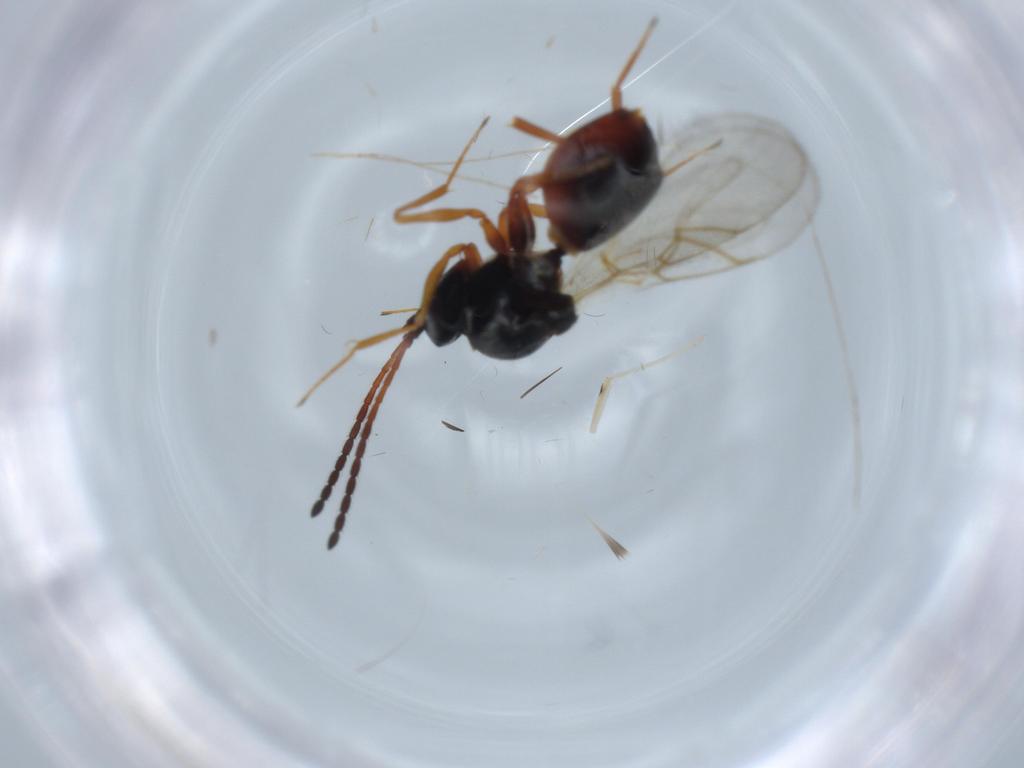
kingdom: Animalia
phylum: Arthropoda
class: Insecta
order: Hymenoptera
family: Figitidae
